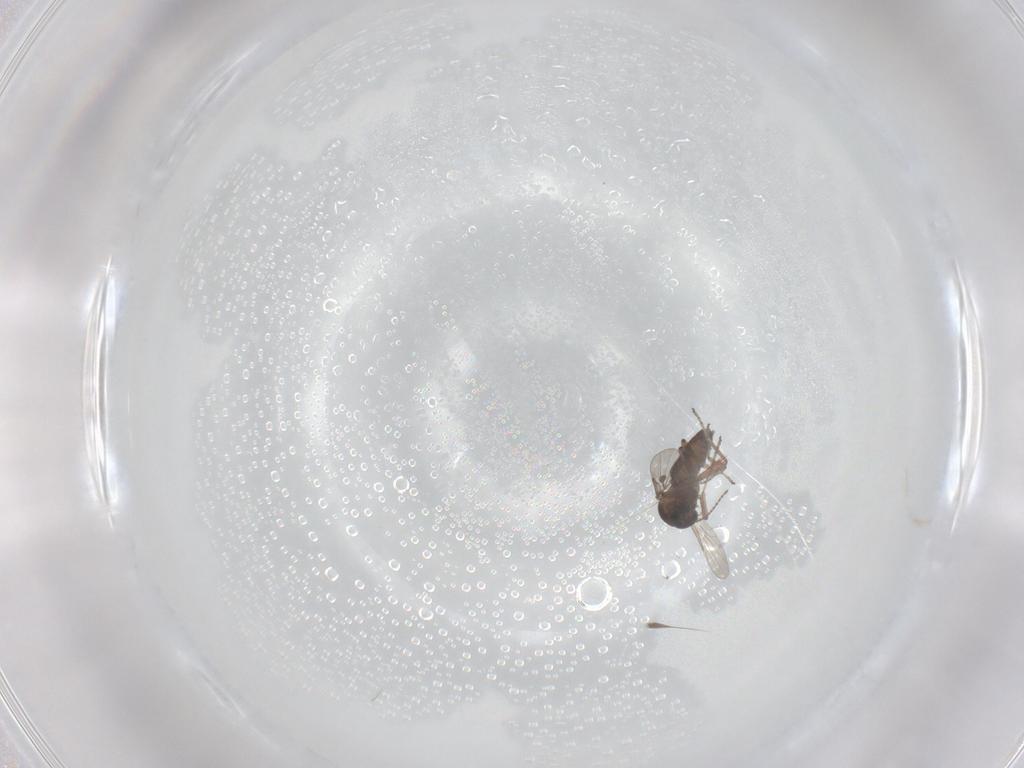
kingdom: Animalia
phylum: Arthropoda
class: Insecta
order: Diptera
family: Ceratopogonidae
